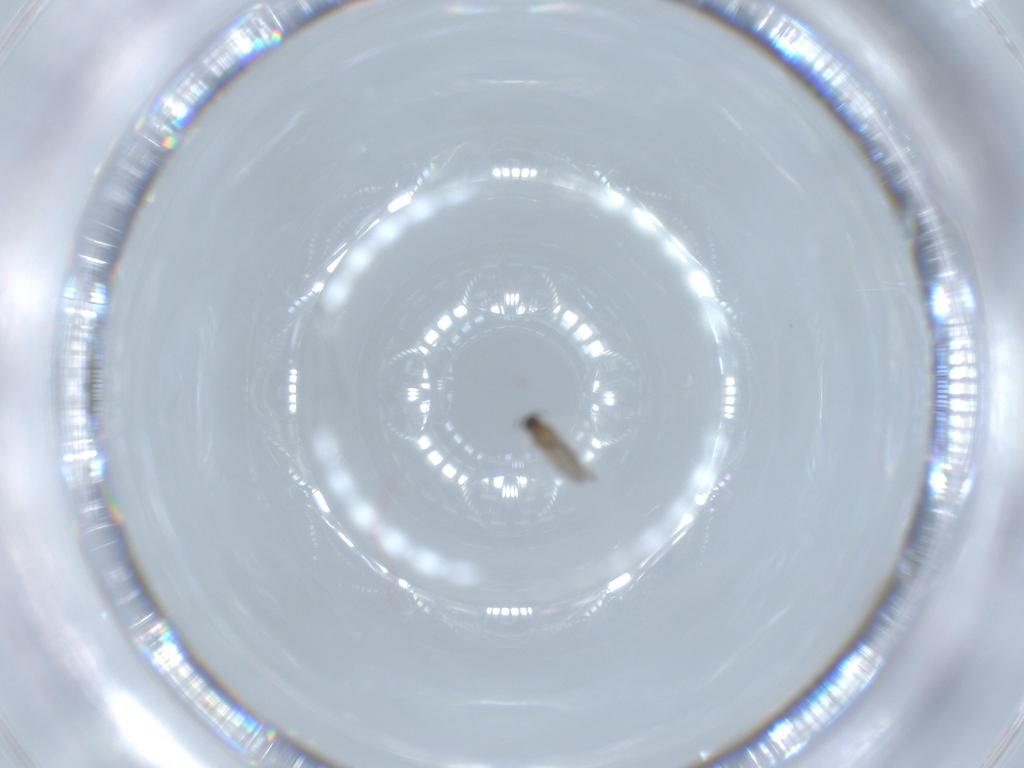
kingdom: Animalia
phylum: Arthropoda
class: Insecta
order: Diptera
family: Cecidomyiidae
